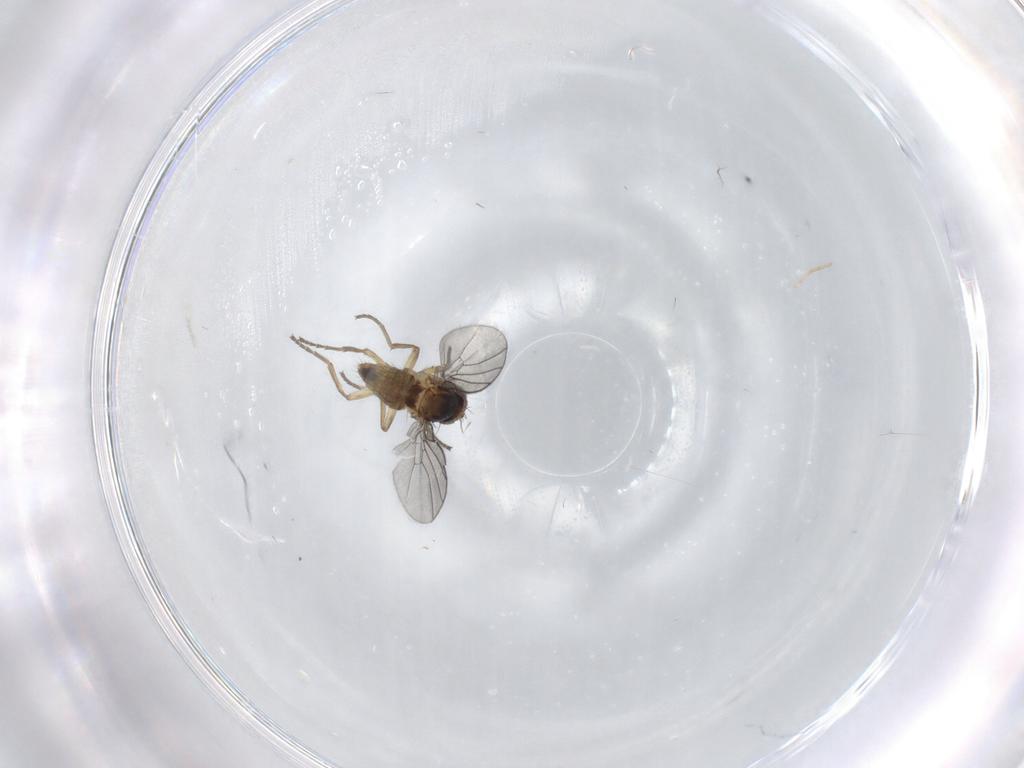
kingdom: Animalia
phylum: Arthropoda
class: Insecta
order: Diptera
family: Agromyzidae
